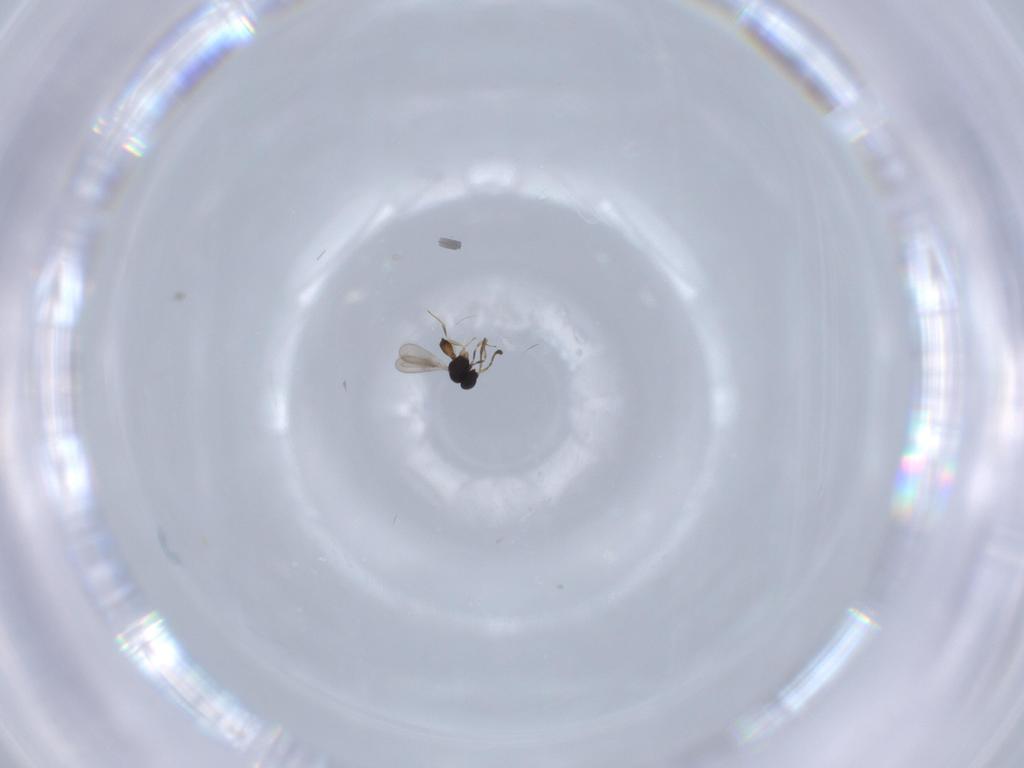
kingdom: Animalia
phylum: Arthropoda
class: Insecta
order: Hymenoptera
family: Scelionidae
